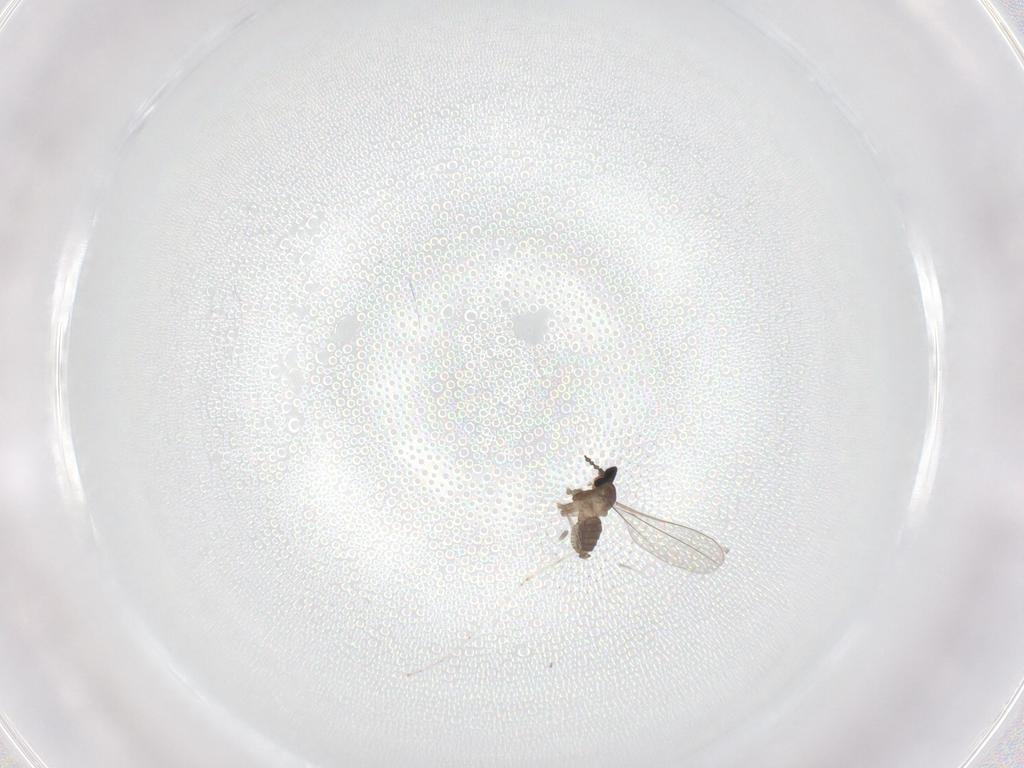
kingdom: Animalia
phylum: Arthropoda
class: Insecta
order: Diptera
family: Cecidomyiidae
